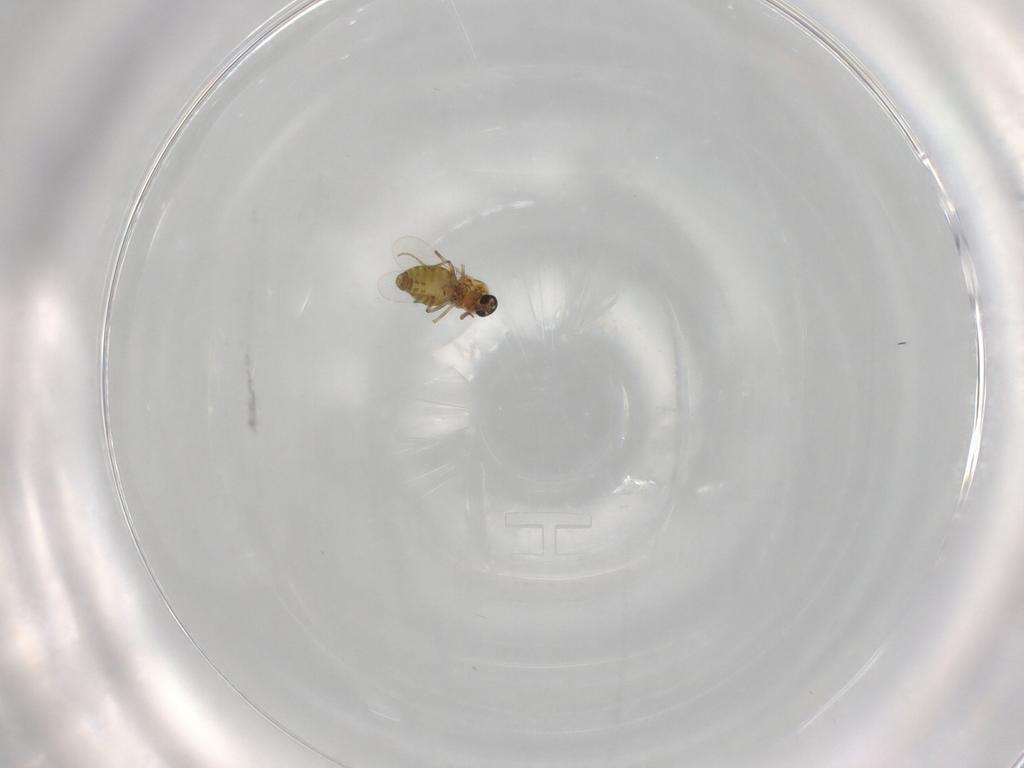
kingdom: Animalia
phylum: Arthropoda
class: Insecta
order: Diptera
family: Ceratopogonidae
